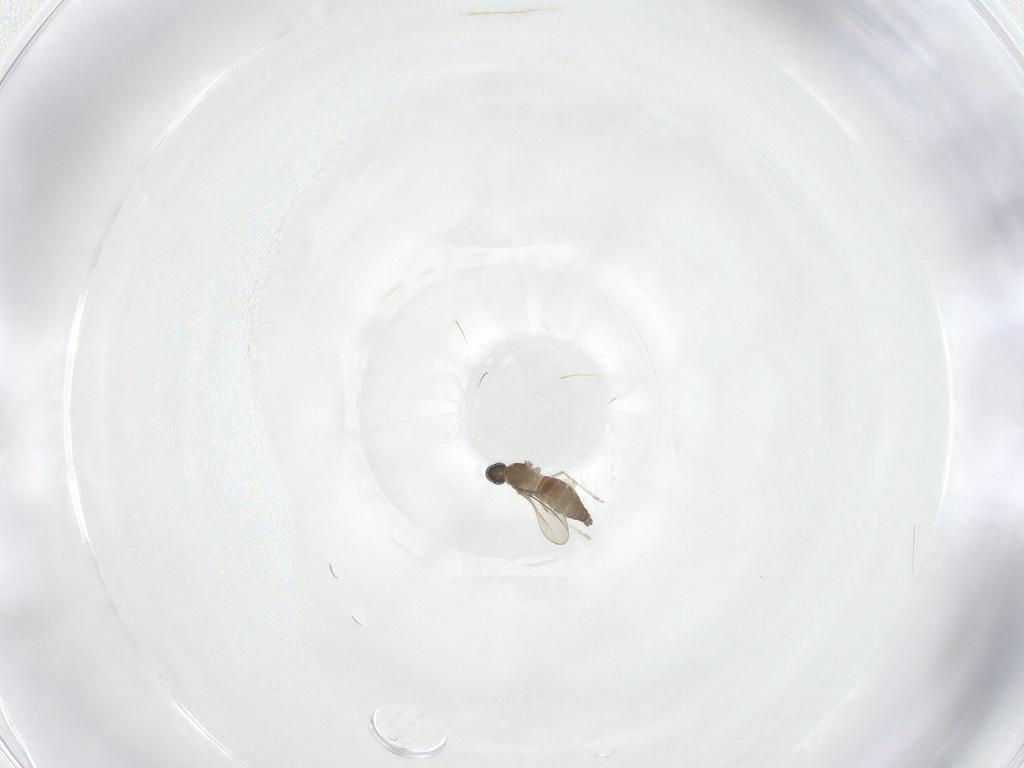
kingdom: Animalia
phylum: Arthropoda
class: Insecta
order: Diptera
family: Cecidomyiidae
